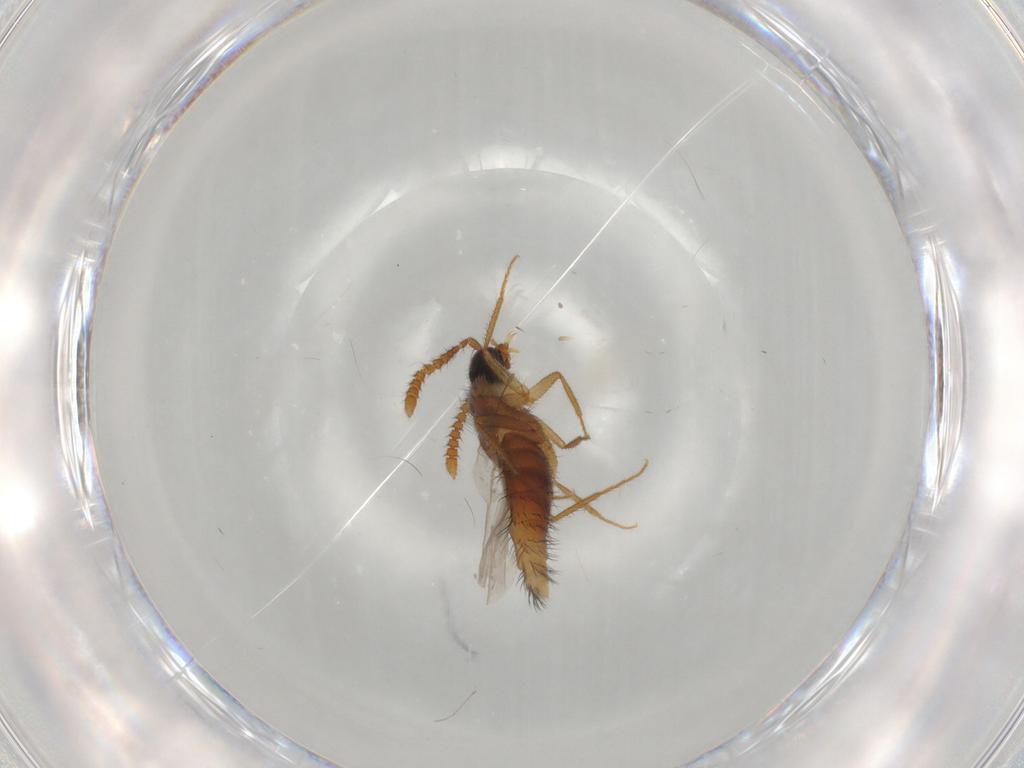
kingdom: Animalia
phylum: Arthropoda
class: Insecta
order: Coleoptera
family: Staphylinidae
